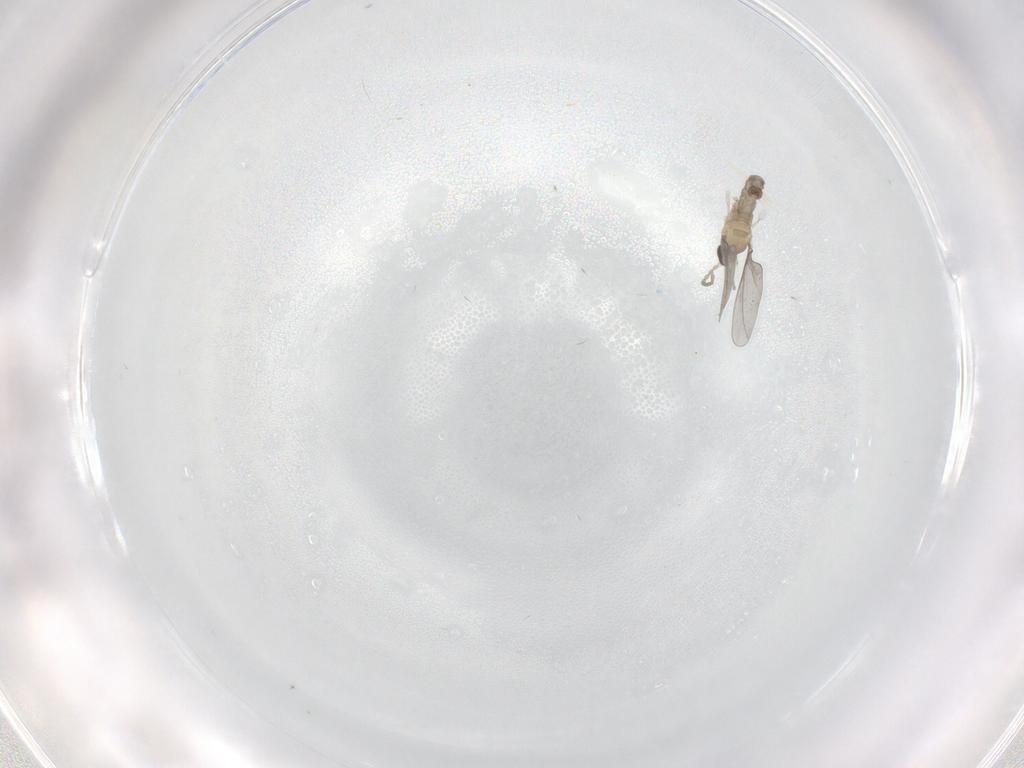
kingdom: Animalia
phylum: Arthropoda
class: Insecta
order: Diptera
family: Cecidomyiidae
